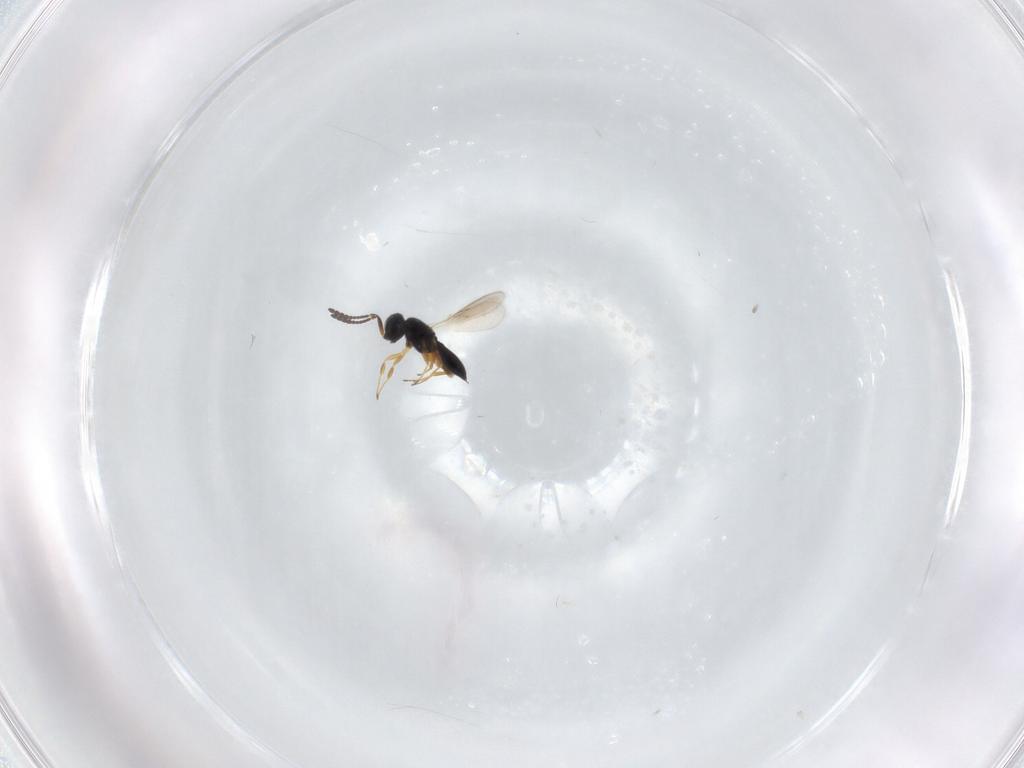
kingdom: Animalia
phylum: Arthropoda
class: Insecta
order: Hymenoptera
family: Scelionidae
